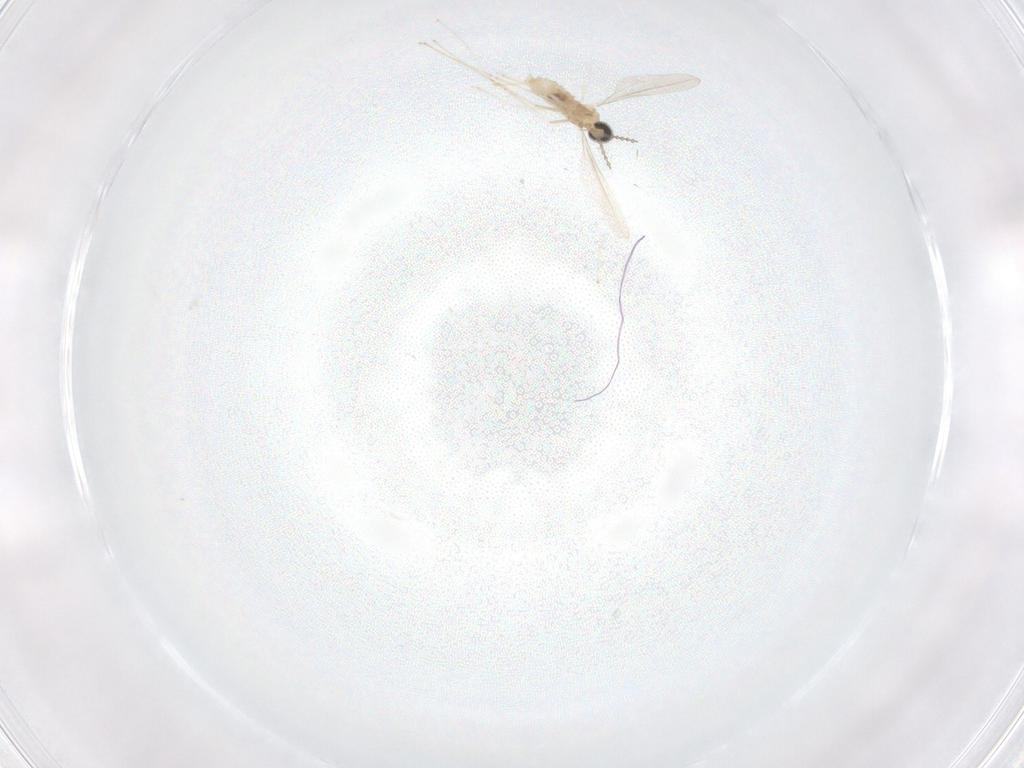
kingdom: Animalia
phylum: Arthropoda
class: Insecta
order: Diptera
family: Cecidomyiidae
